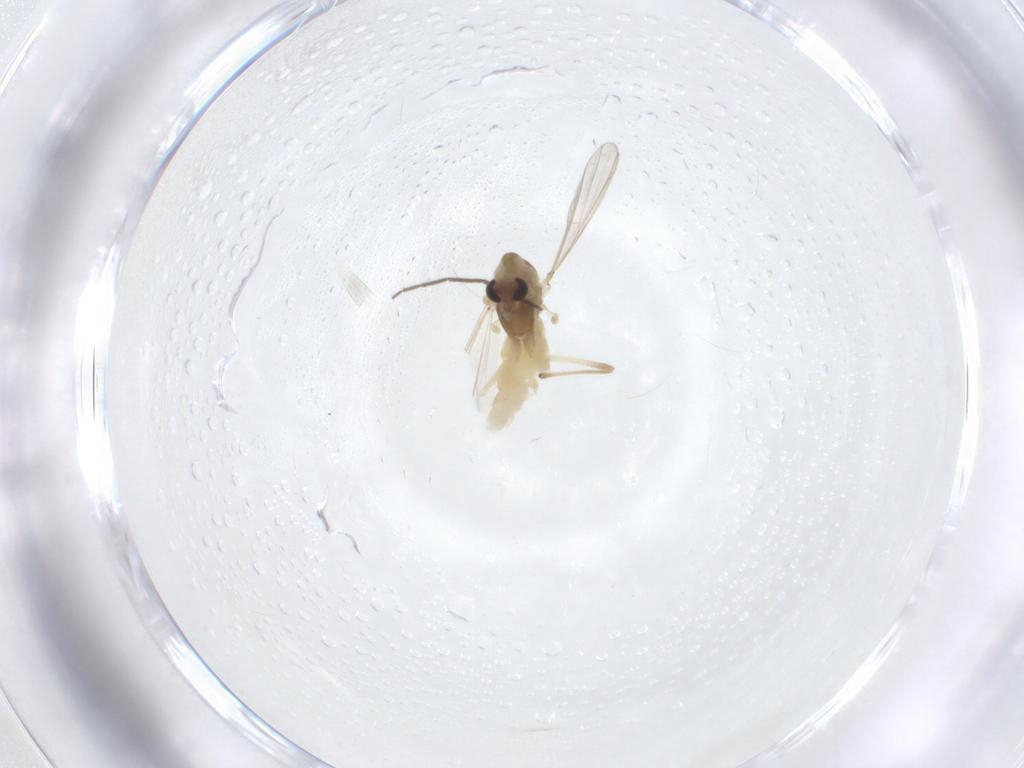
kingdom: Animalia
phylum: Arthropoda
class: Insecta
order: Diptera
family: Chironomidae
